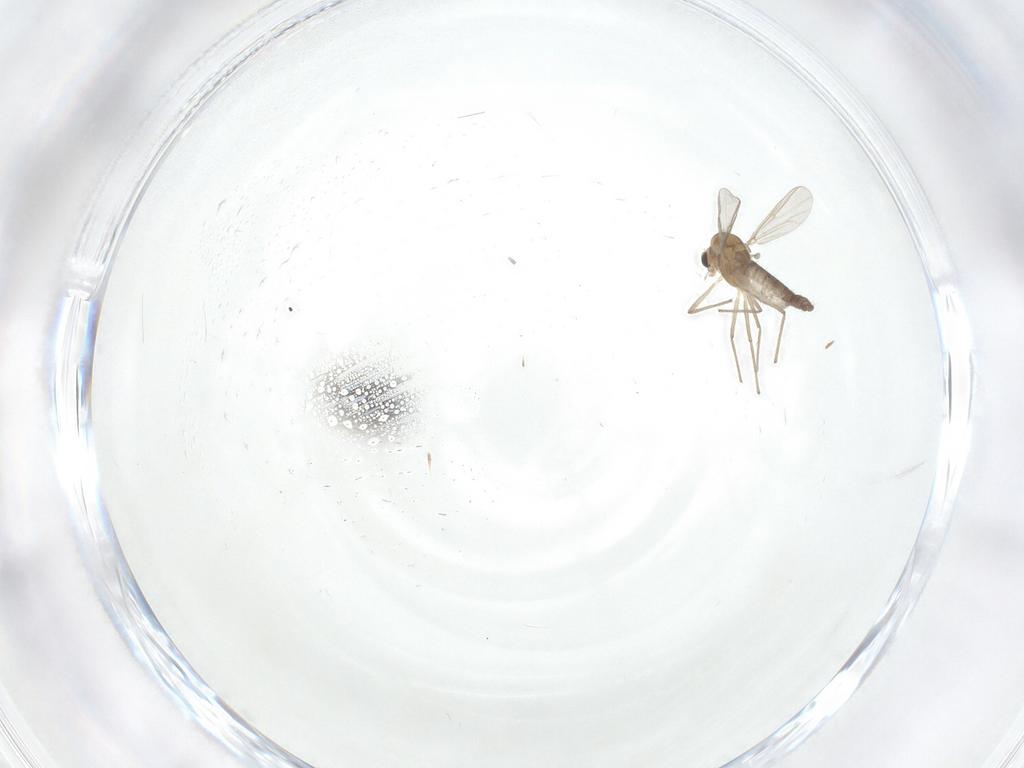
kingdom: Animalia
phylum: Arthropoda
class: Insecta
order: Diptera
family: Chironomidae
